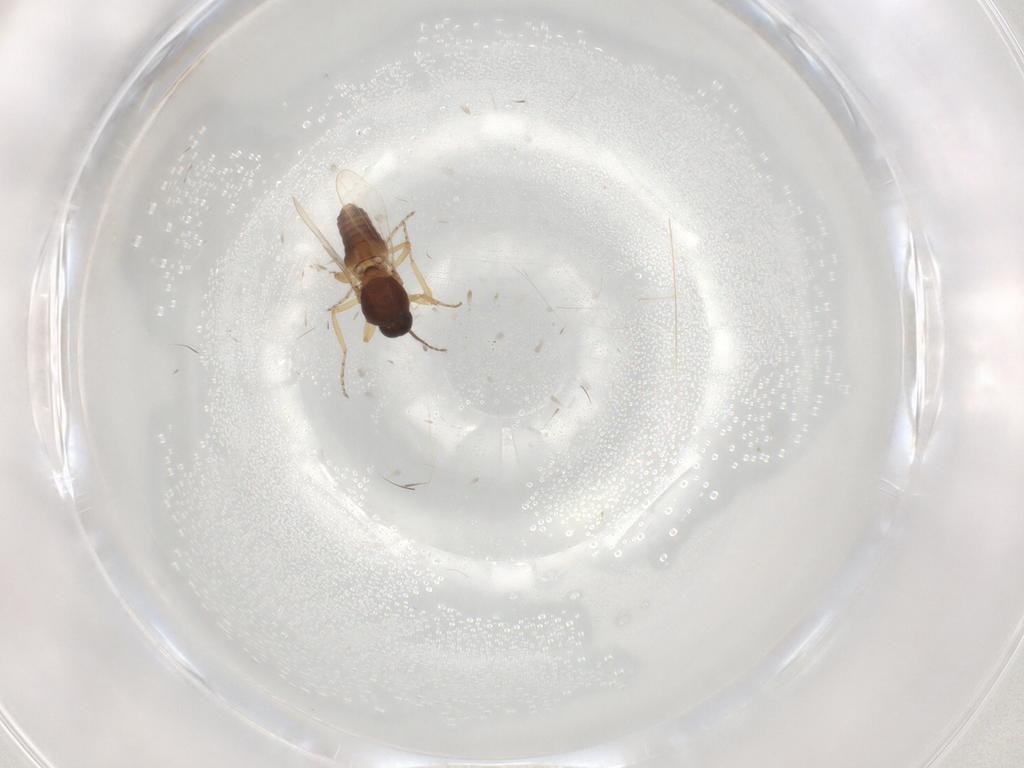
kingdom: Animalia
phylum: Arthropoda
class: Insecta
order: Diptera
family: Ceratopogonidae
